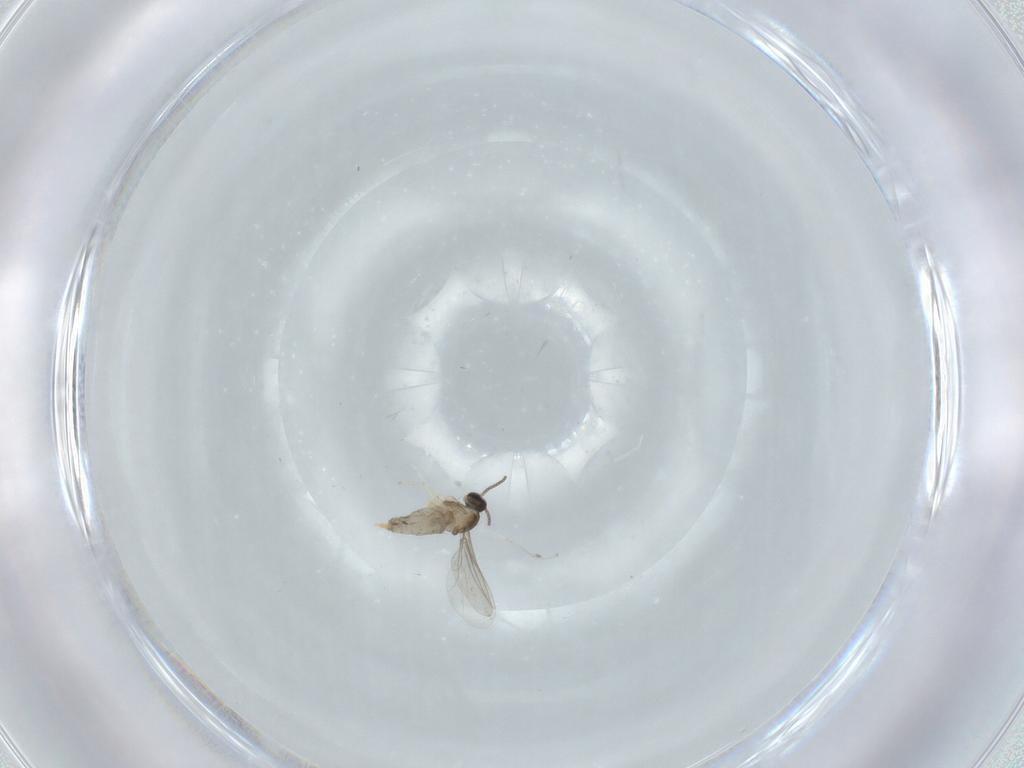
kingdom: Animalia
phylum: Arthropoda
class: Insecta
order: Diptera
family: Cecidomyiidae
